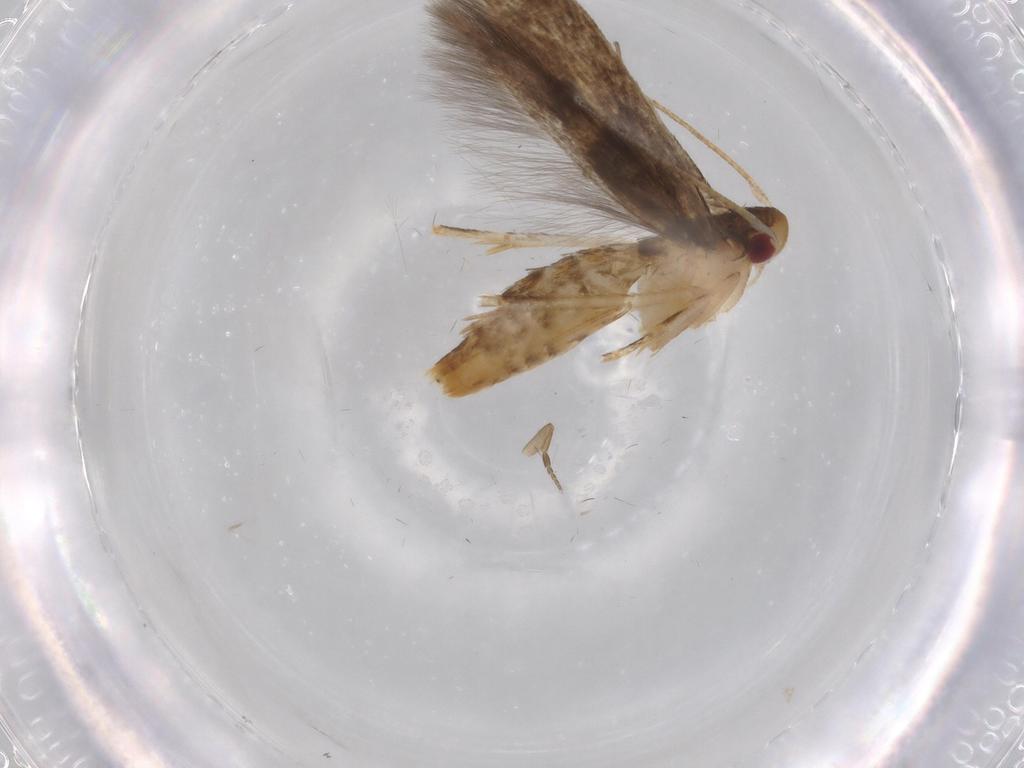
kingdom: Animalia
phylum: Arthropoda
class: Insecta
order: Lepidoptera
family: Momphidae
